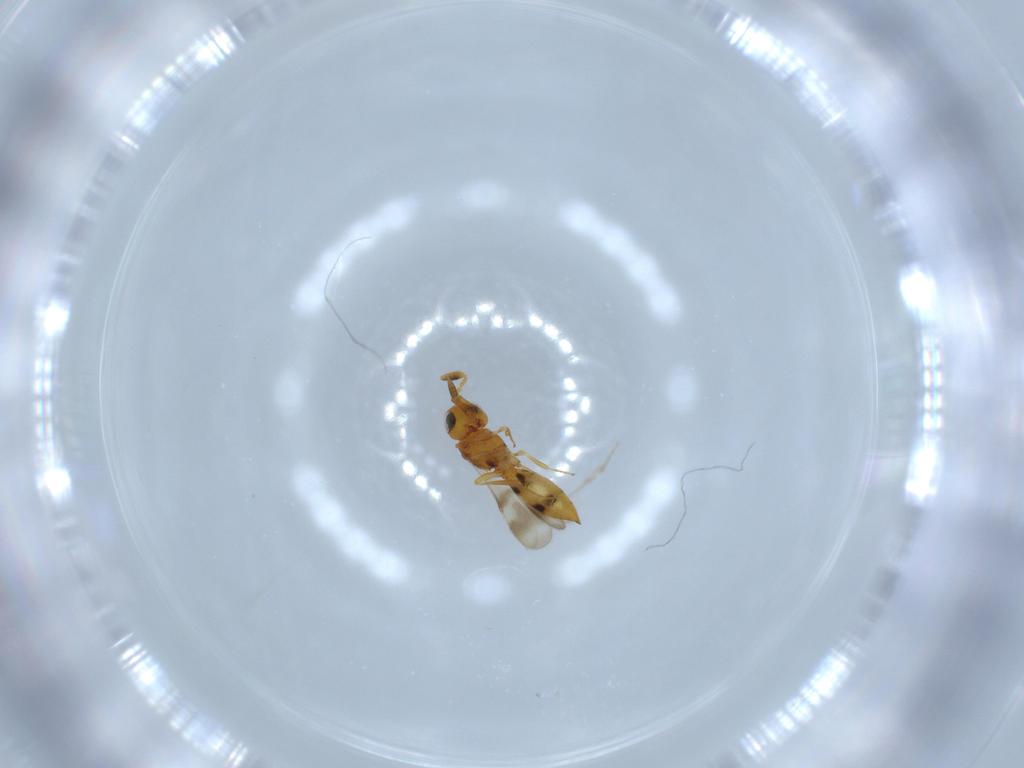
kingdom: Animalia
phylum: Arthropoda
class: Insecta
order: Hymenoptera
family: Scelionidae
